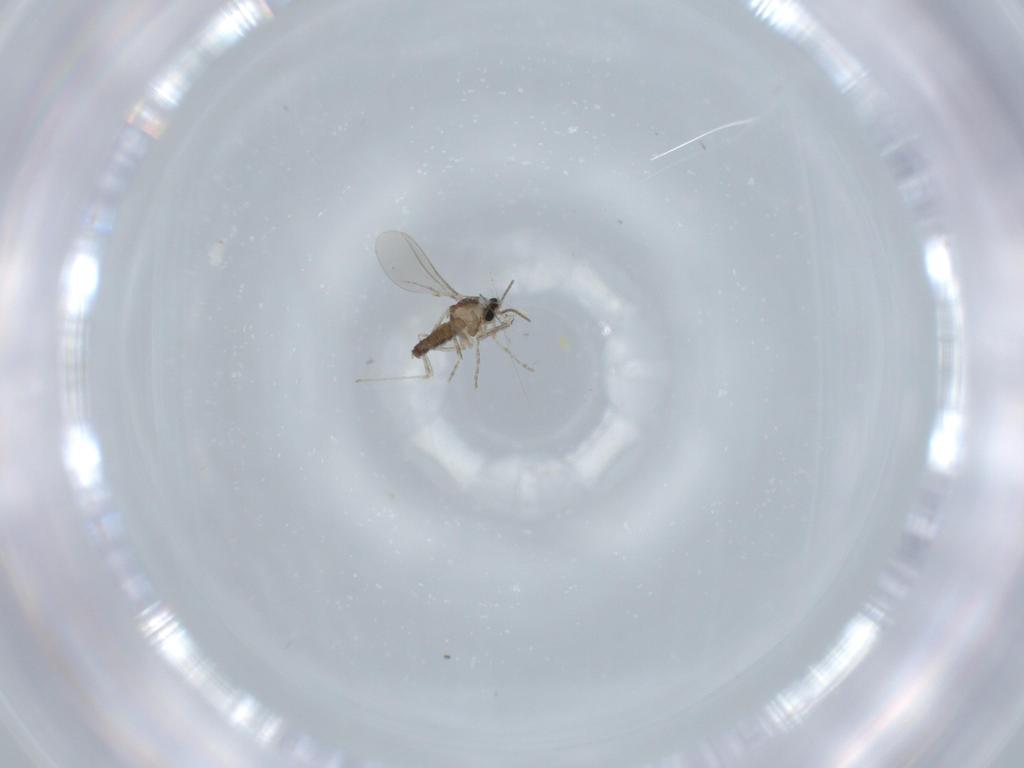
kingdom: Animalia
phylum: Arthropoda
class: Insecta
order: Diptera
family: Cecidomyiidae
